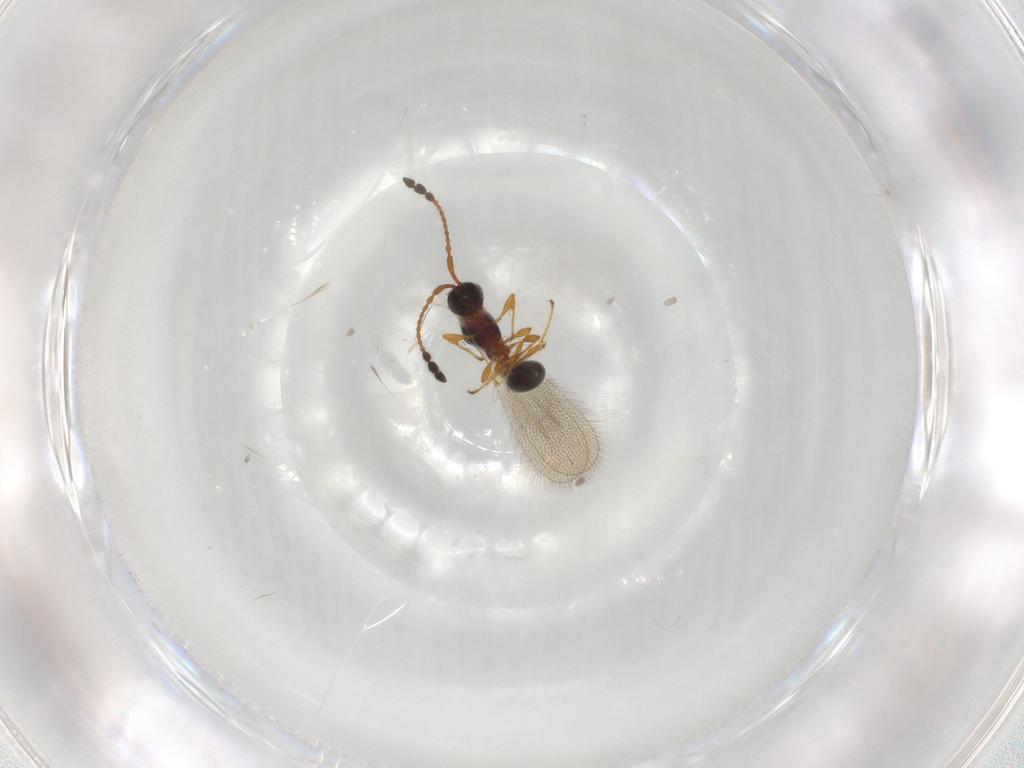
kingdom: Animalia
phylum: Arthropoda
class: Insecta
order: Hymenoptera
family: Diapriidae
